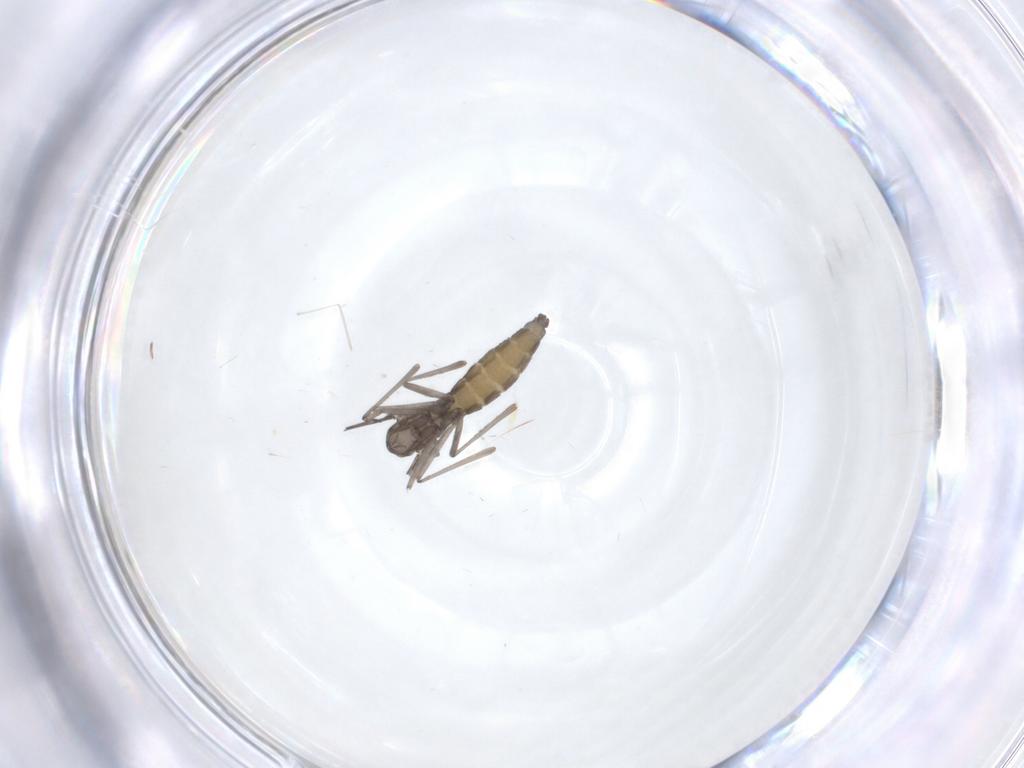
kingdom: Animalia
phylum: Arthropoda
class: Insecta
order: Diptera
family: Cecidomyiidae
